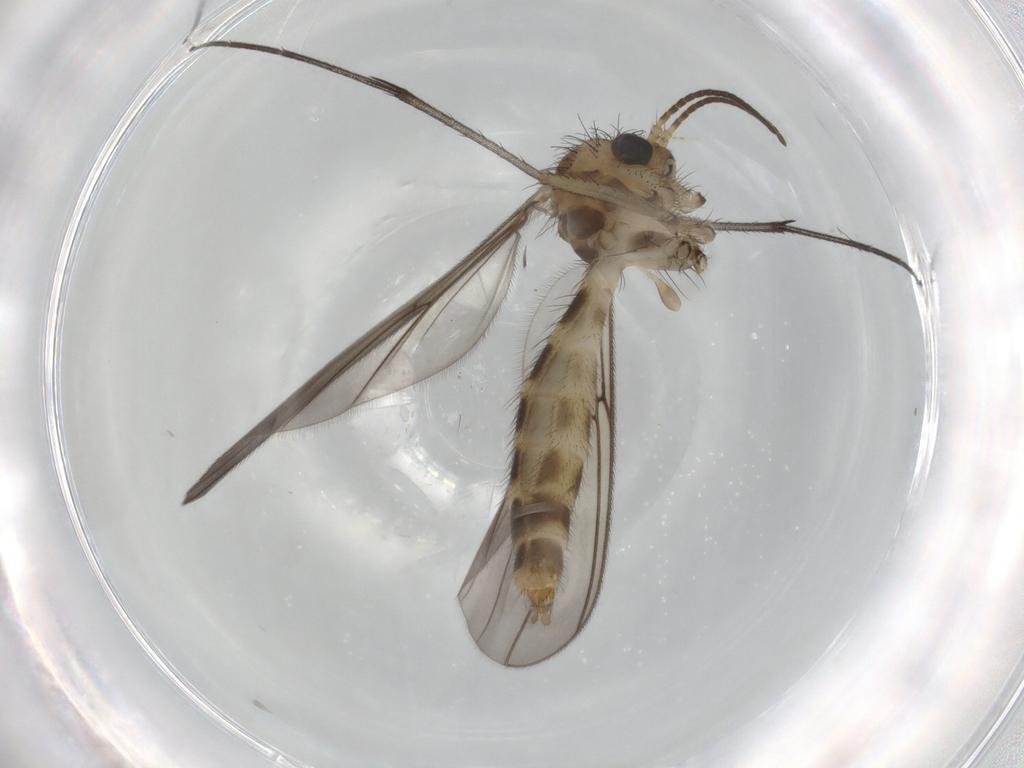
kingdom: Animalia
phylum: Arthropoda
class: Insecta
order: Diptera
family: Mycetophilidae
